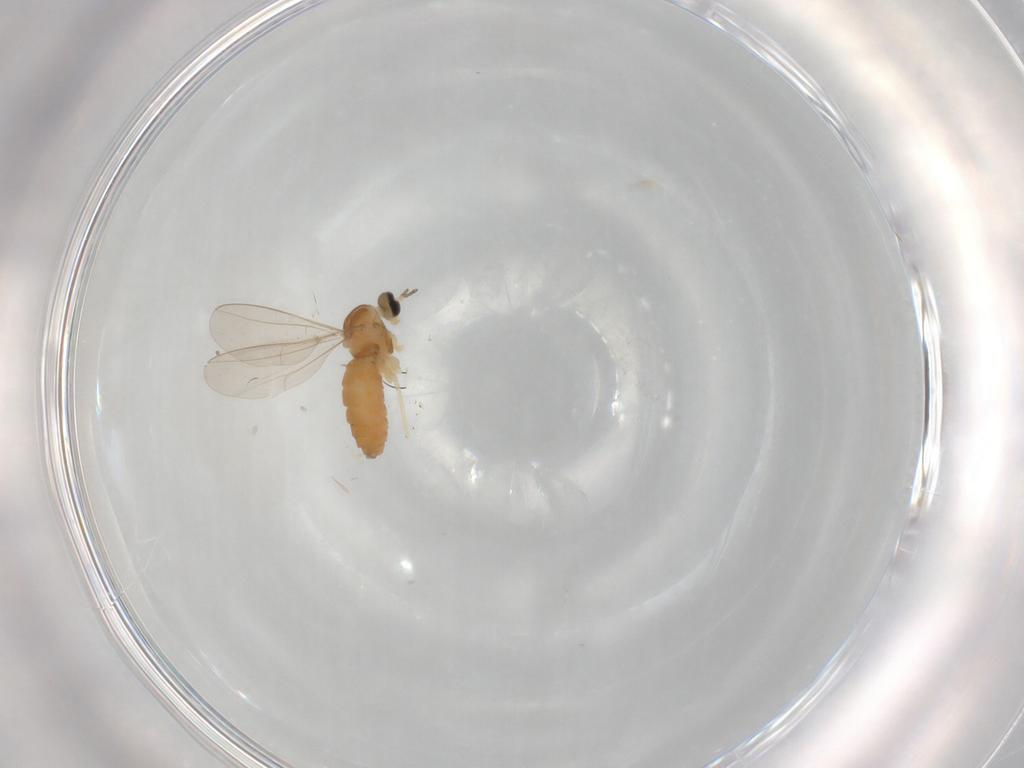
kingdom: Animalia
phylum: Arthropoda
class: Insecta
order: Diptera
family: Cecidomyiidae
